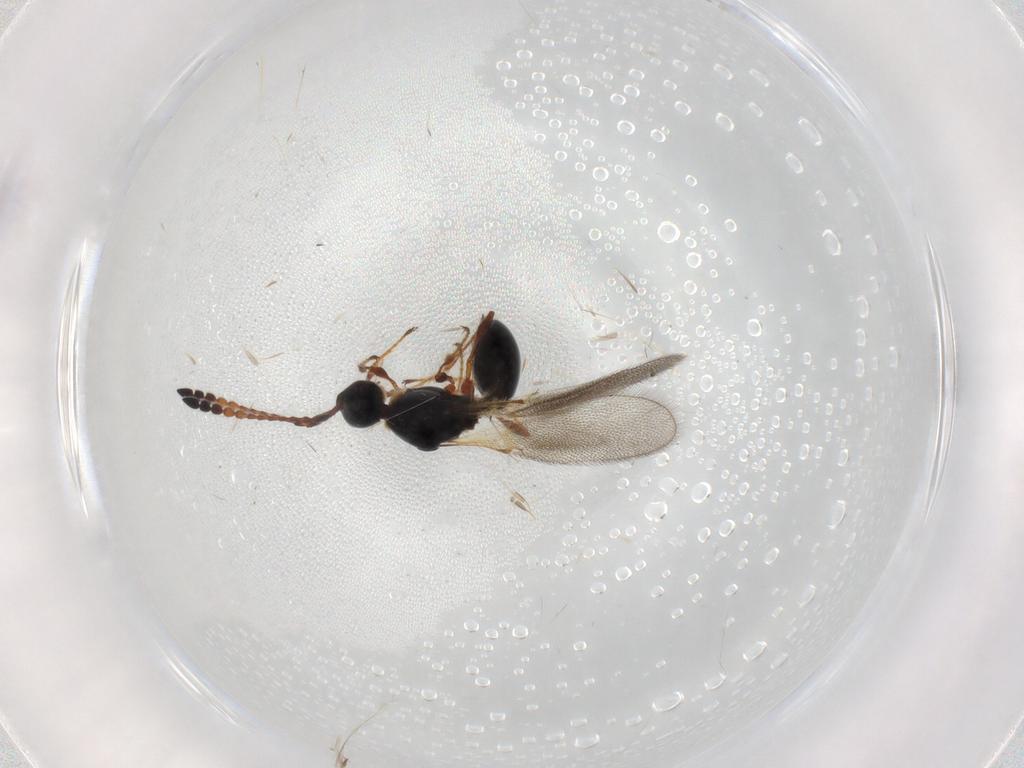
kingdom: Animalia
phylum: Arthropoda
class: Insecta
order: Hymenoptera
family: Diapriidae
